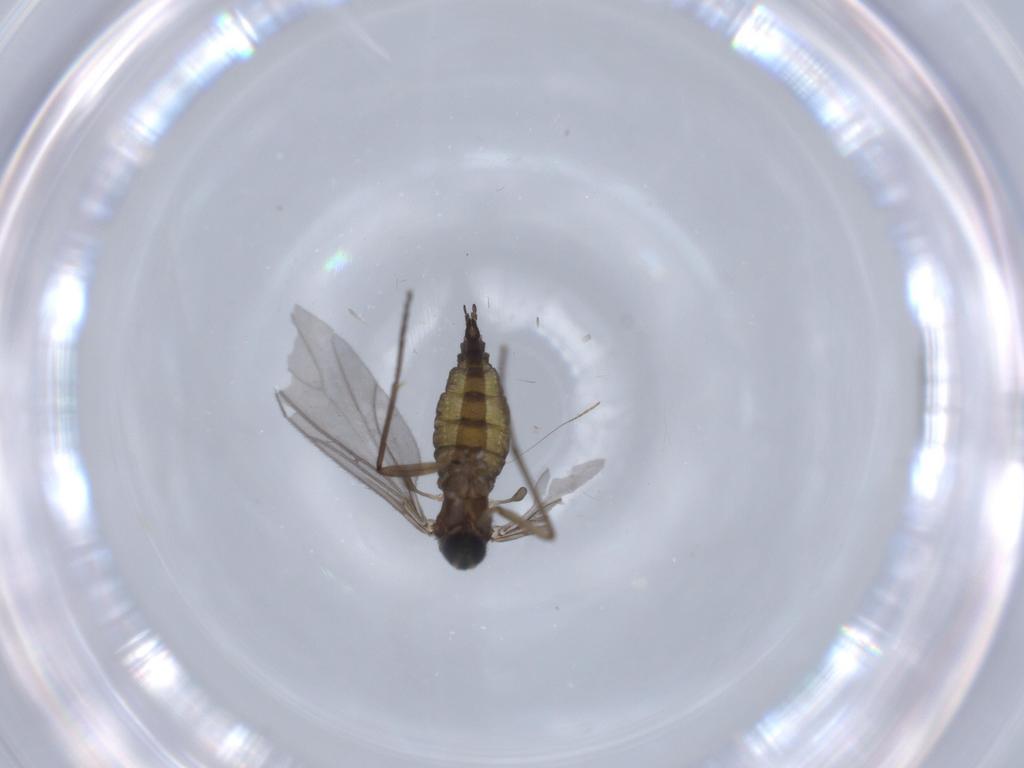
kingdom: Animalia
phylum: Arthropoda
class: Insecta
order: Diptera
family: Sciaridae
